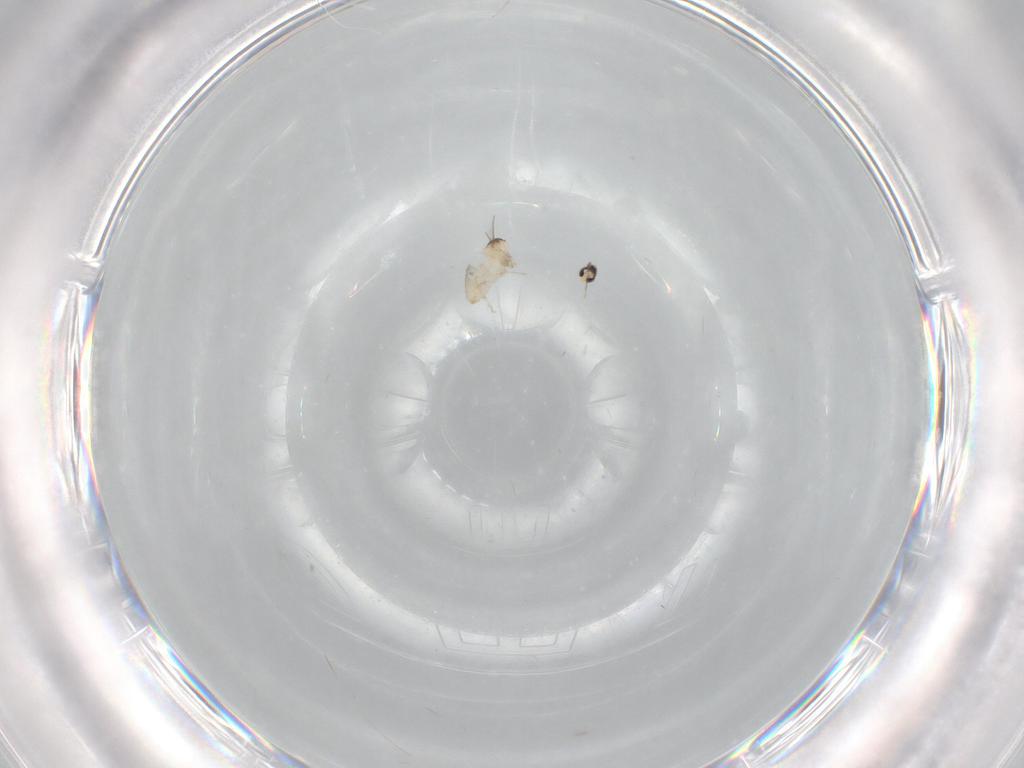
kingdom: Animalia
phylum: Arthropoda
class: Insecta
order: Diptera
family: Cecidomyiidae
